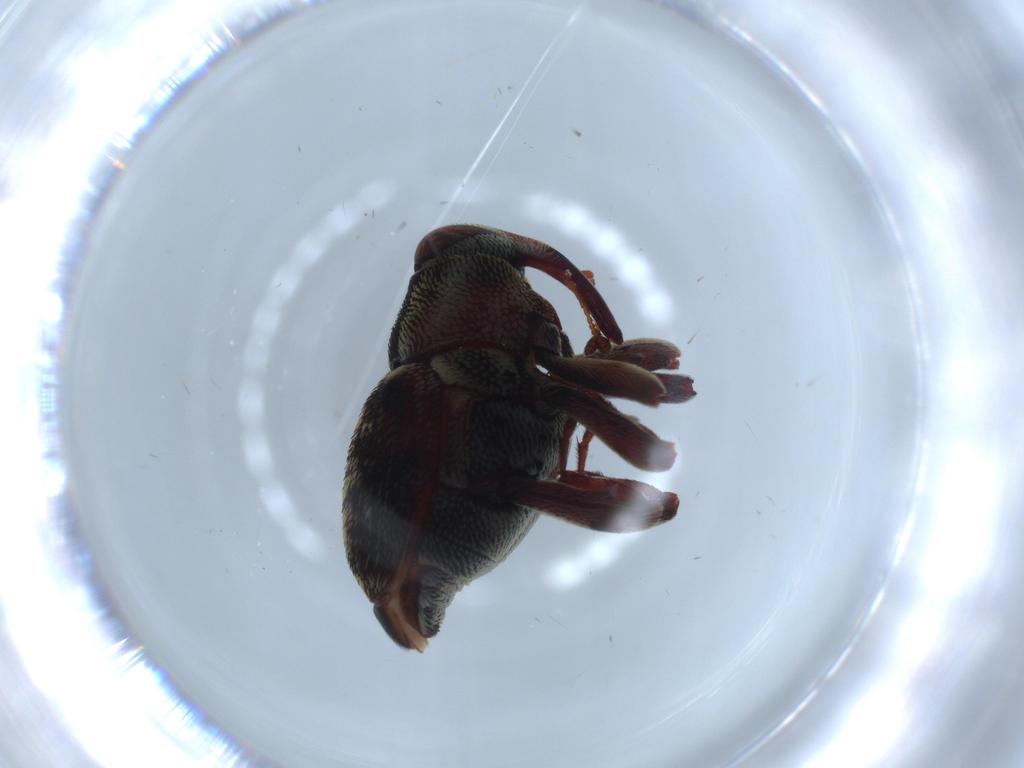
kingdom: Animalia
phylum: Arthropoda
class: Insecta
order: Coleoptera
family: Curculionidae
